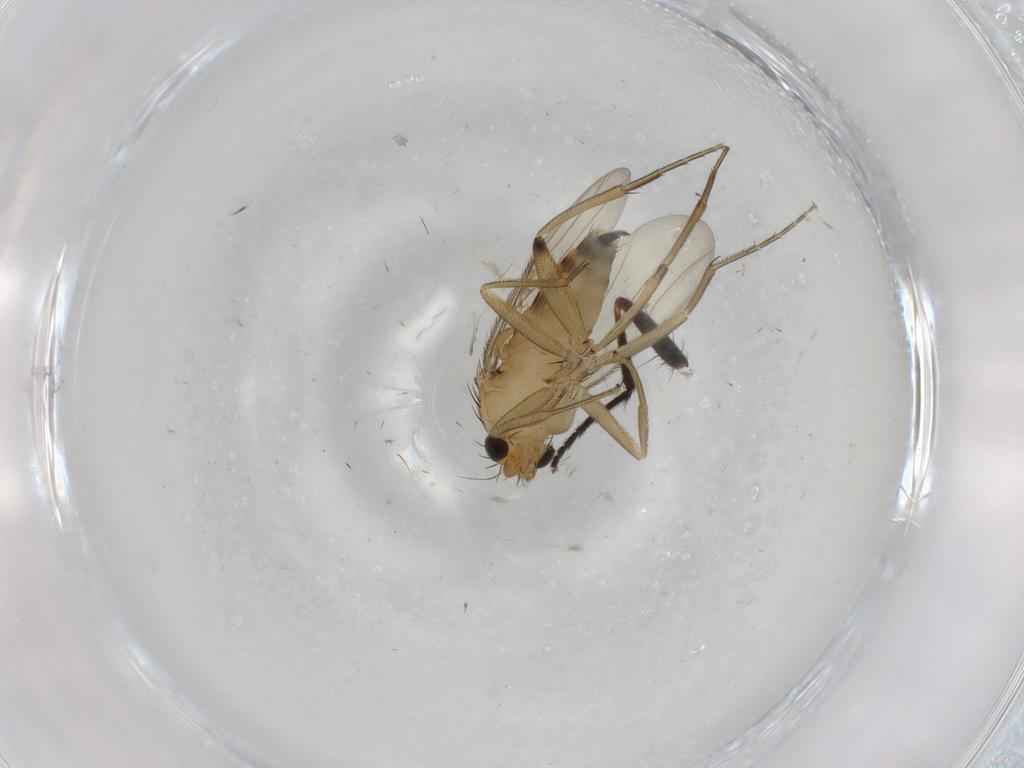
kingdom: Animalia
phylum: Arthropoda
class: Insecta
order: Diptera
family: Phoridae
